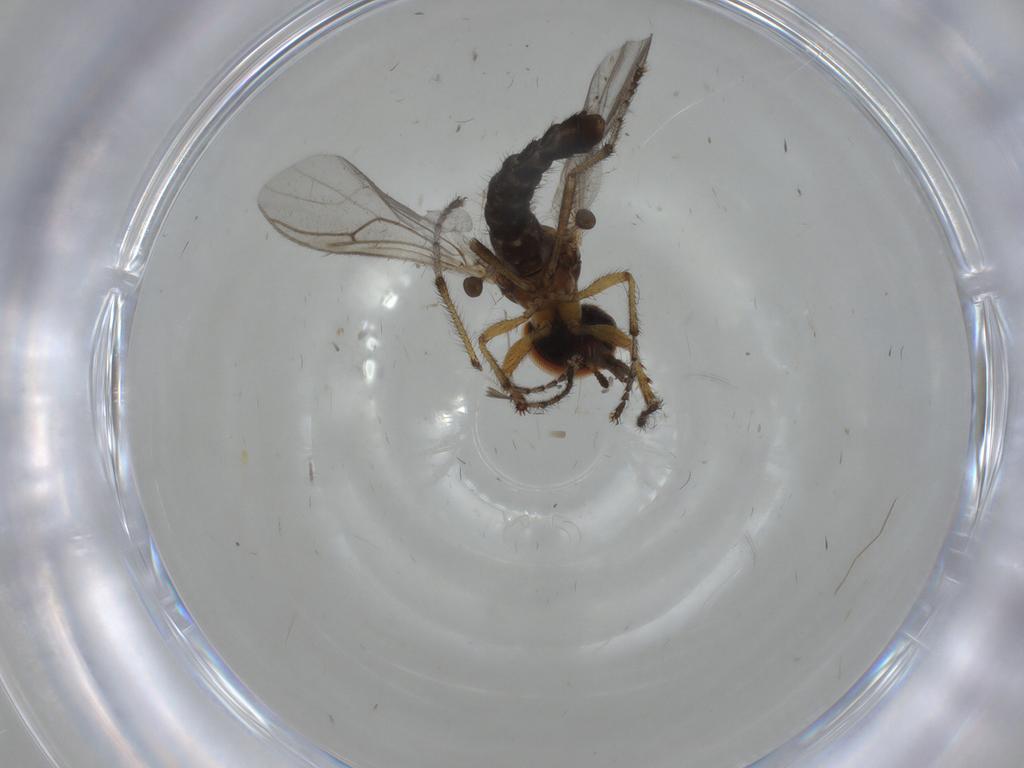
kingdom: Animalia
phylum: Arthropoda
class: Insecta
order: Diptera
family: Bibionidae
